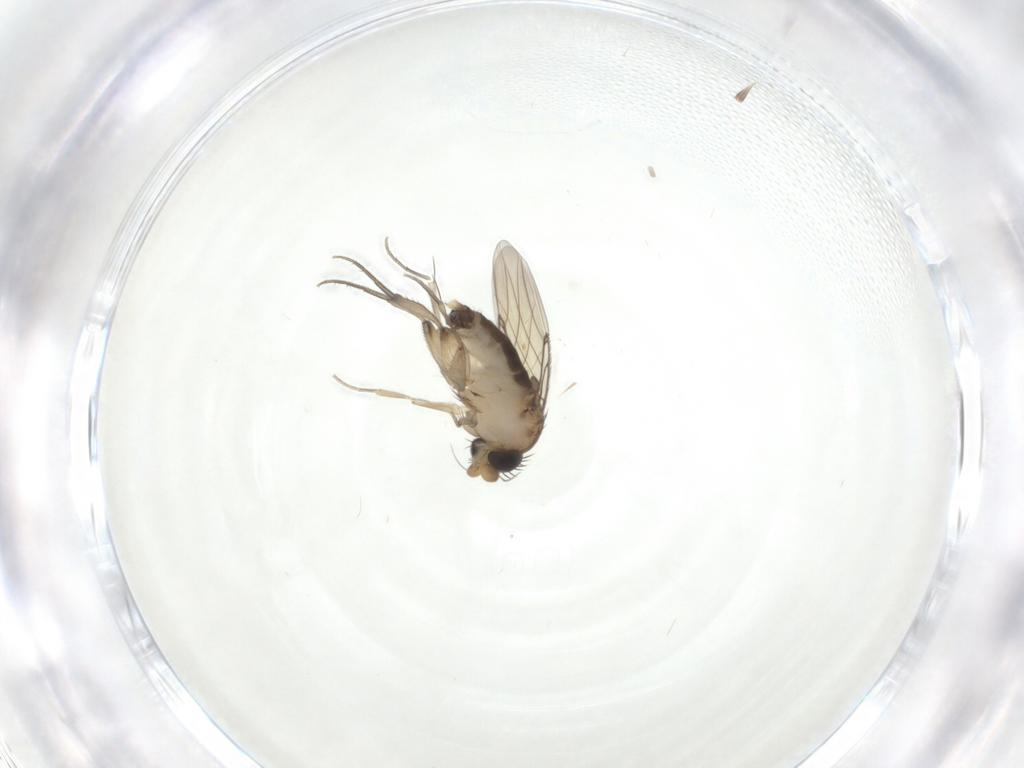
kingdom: Animalia
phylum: Arthropoda
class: Insecta
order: Diptera
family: Phoridae
